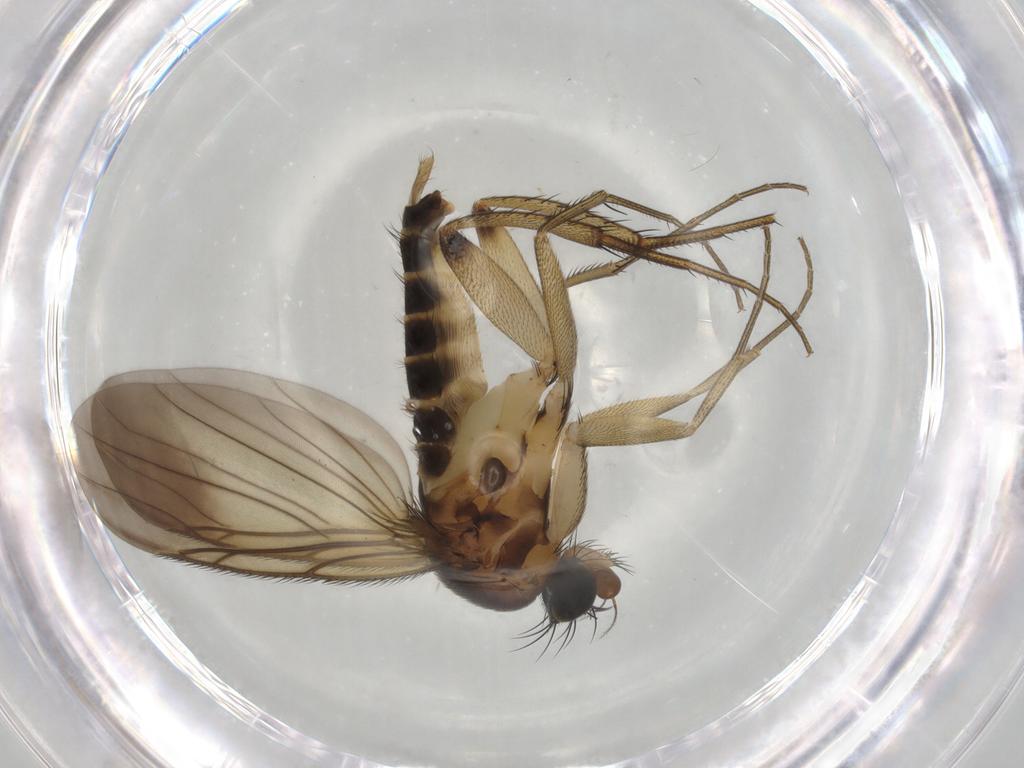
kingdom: Animalia
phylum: Arthropoda
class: Insecta
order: Diptera
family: Phoridae
